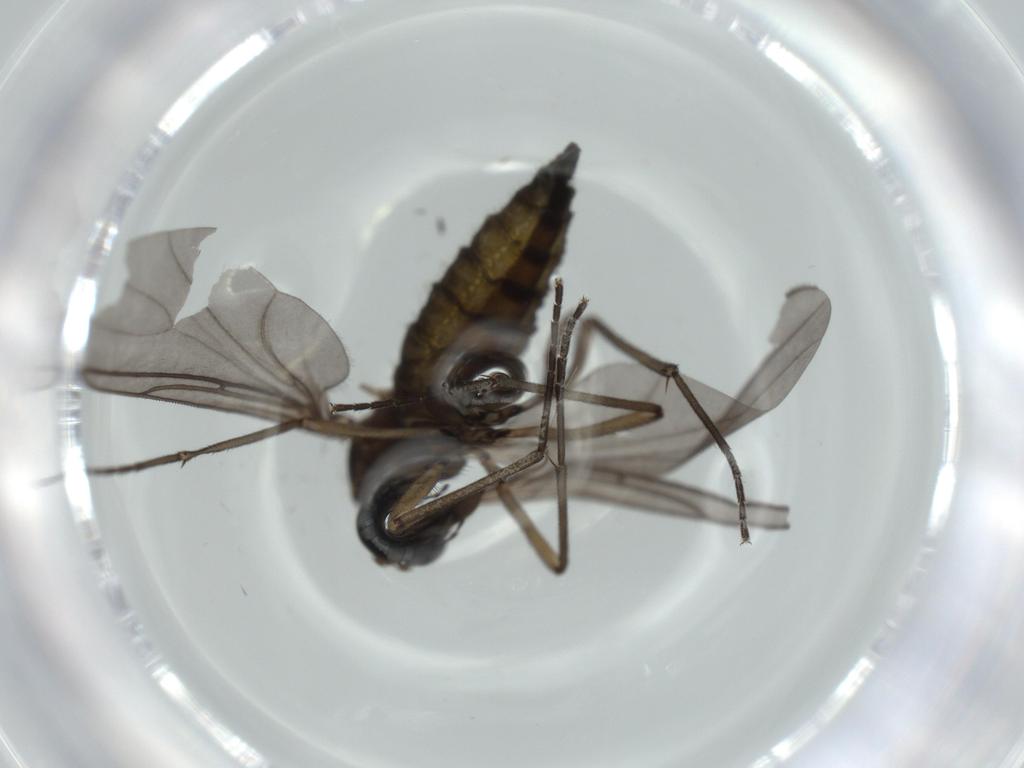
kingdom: Animalia
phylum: Arthropoda
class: Insecta
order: Diptera
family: Sciaridae
